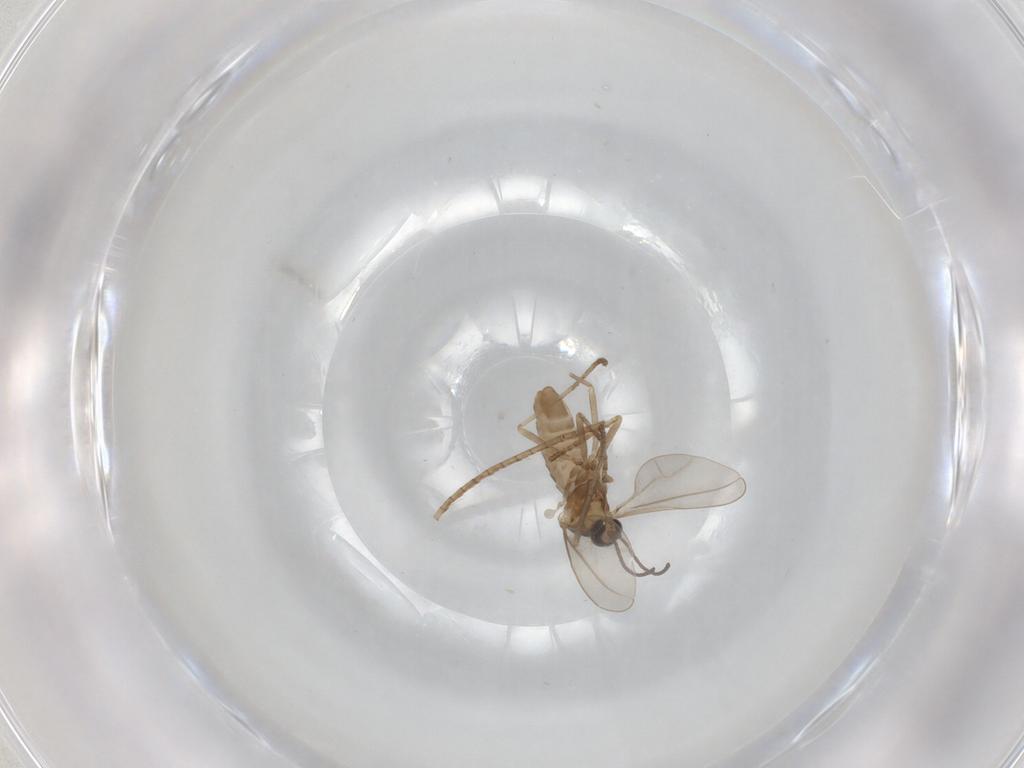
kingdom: Animalia
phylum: Arthropoda
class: Insecta
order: Diptera
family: Cecidomyiidae
